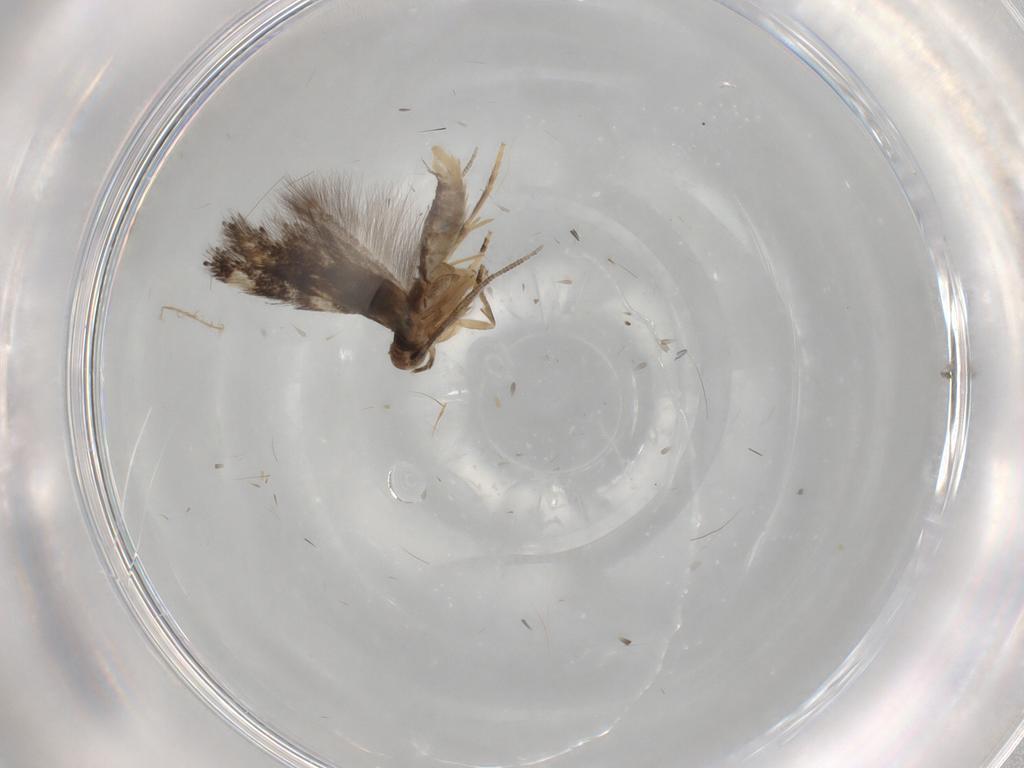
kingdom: Animalia
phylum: Arthropoda
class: Insecta
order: Lepidoptera
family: Elachistidae
